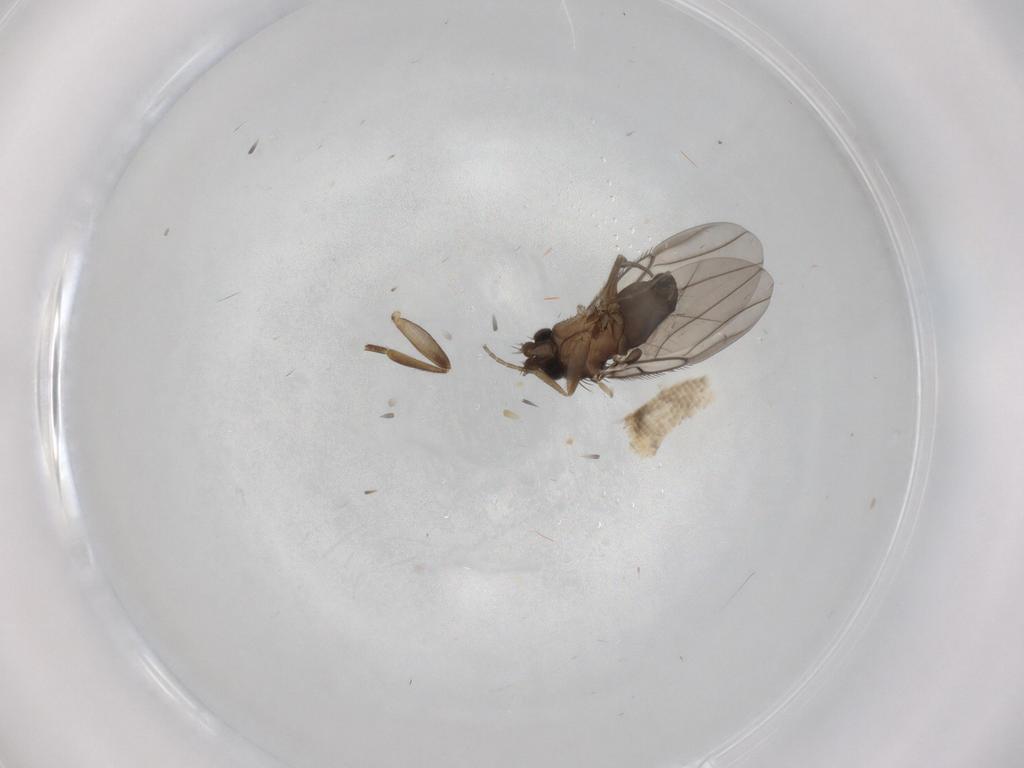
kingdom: Animalia
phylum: Arthropoda
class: Insecta
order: Diptera
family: Phoridae
